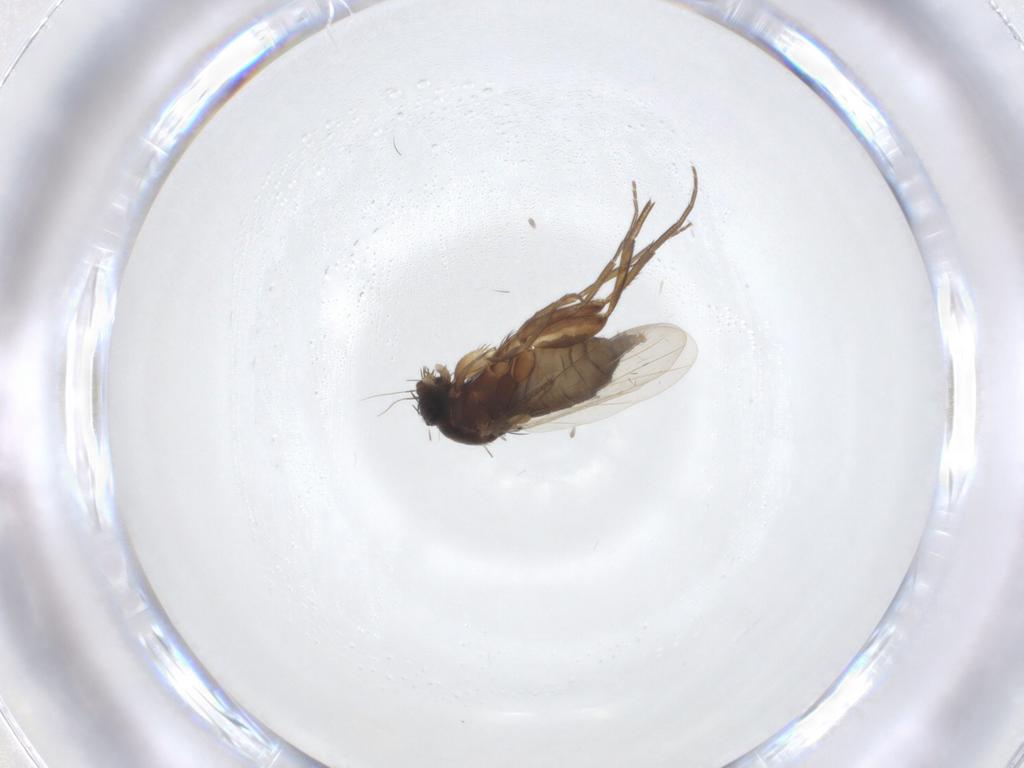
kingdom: Animalia
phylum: Arthropoda
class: Insecta
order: Diptera
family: Phoridae
